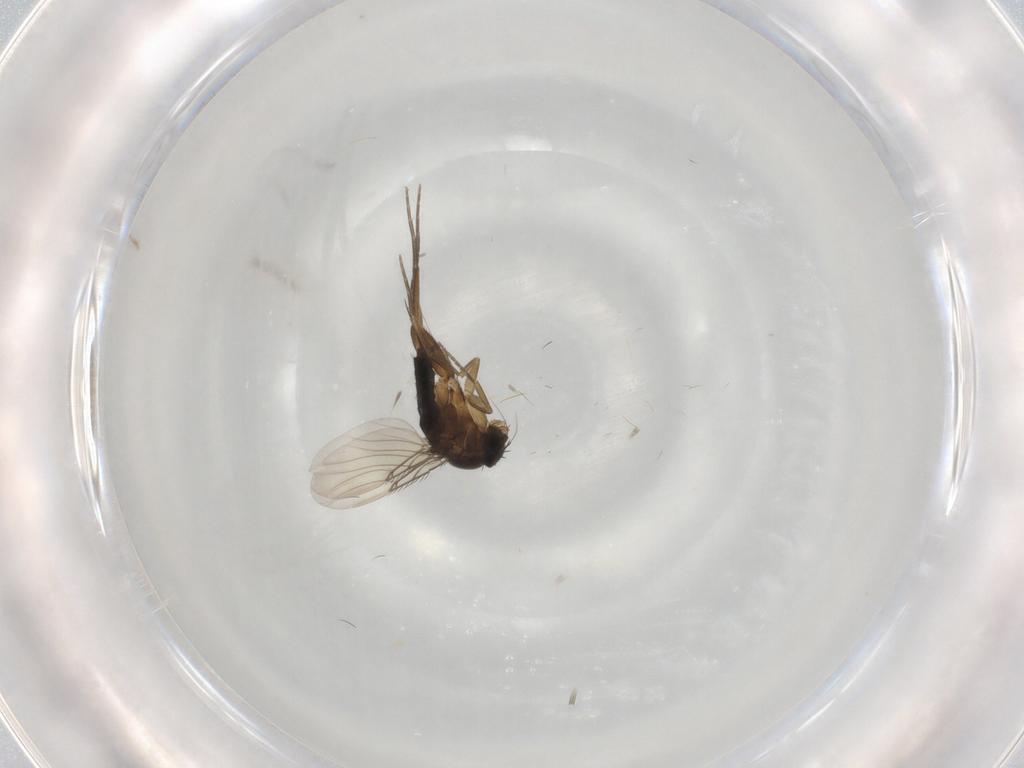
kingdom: Animalia
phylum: Arthropoda
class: Insecta
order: Diptera
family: Phoridae
